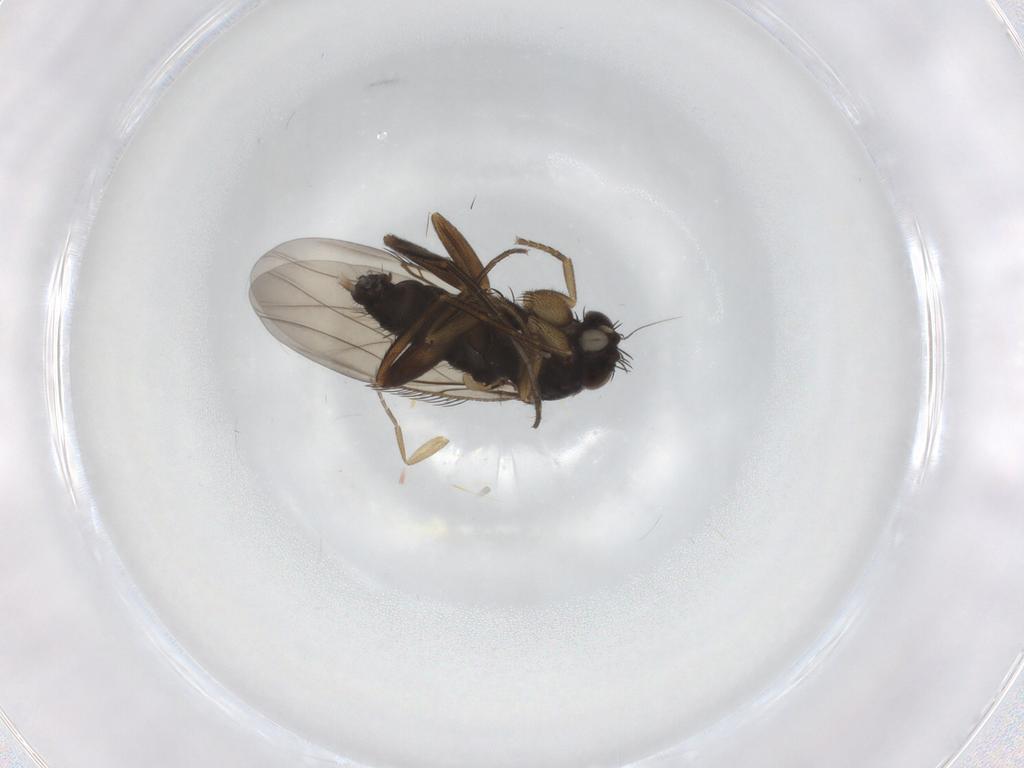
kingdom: Animalia
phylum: Arthropoda
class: Insecta
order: Diptera
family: Phoridae
